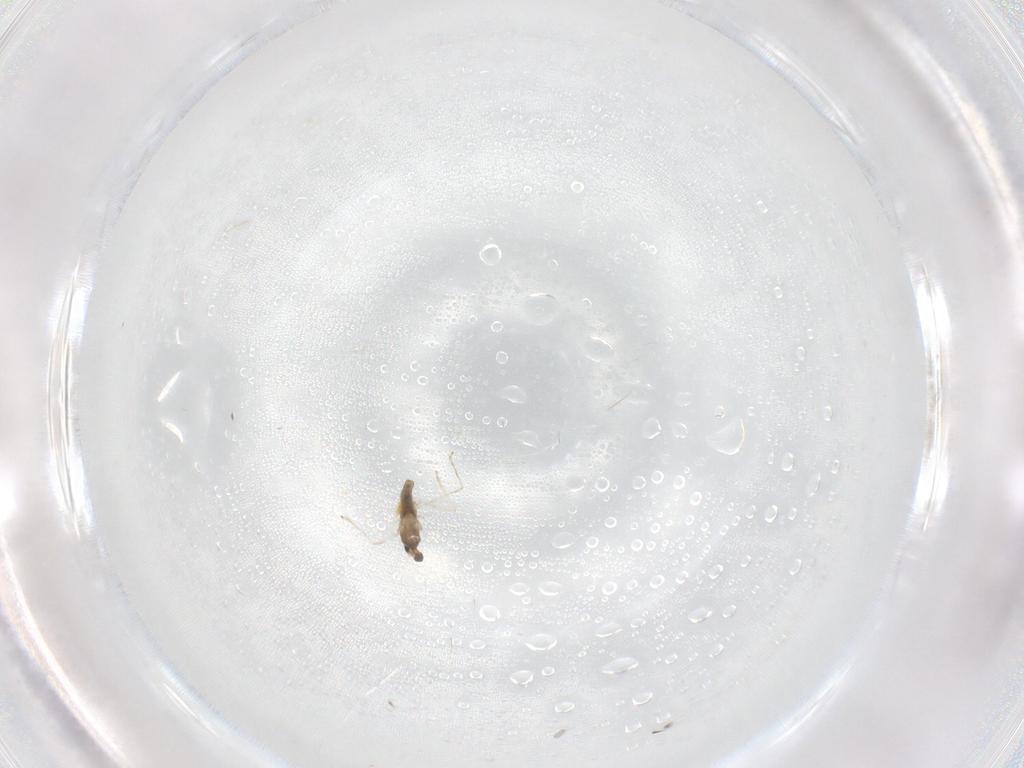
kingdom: Animalia
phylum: Arthropoda
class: Insecta
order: Diptera
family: Cecidomyiidae
